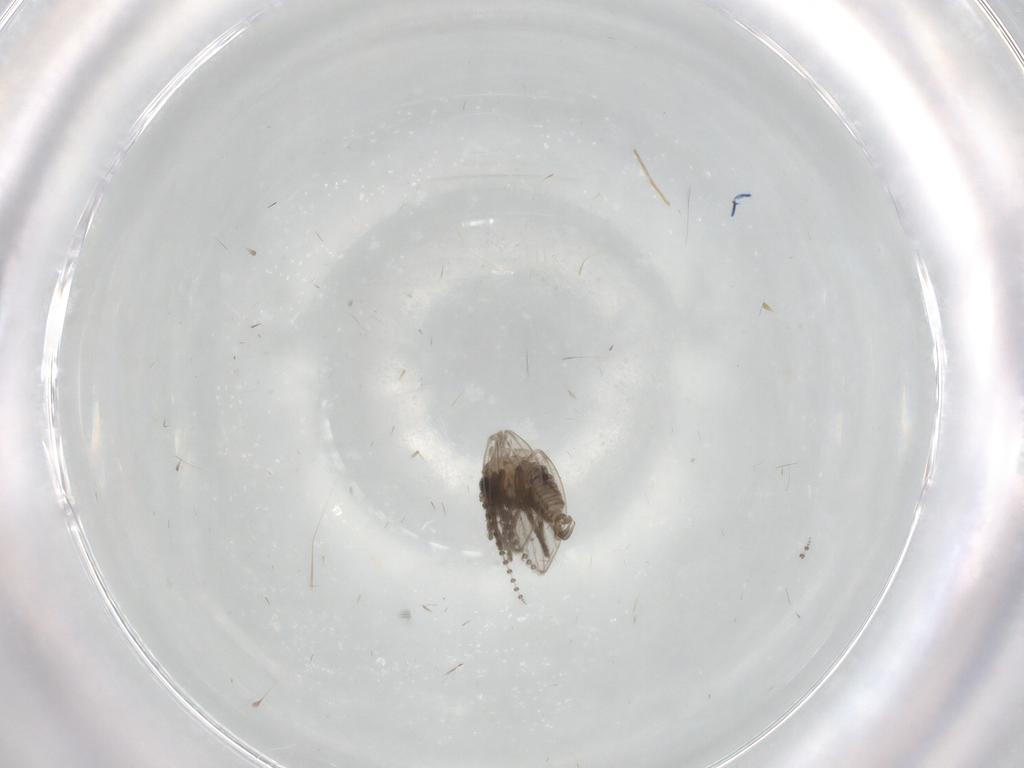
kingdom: Animalia
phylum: Arthropoda
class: Insecta
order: Diptera
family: Psychodidae
